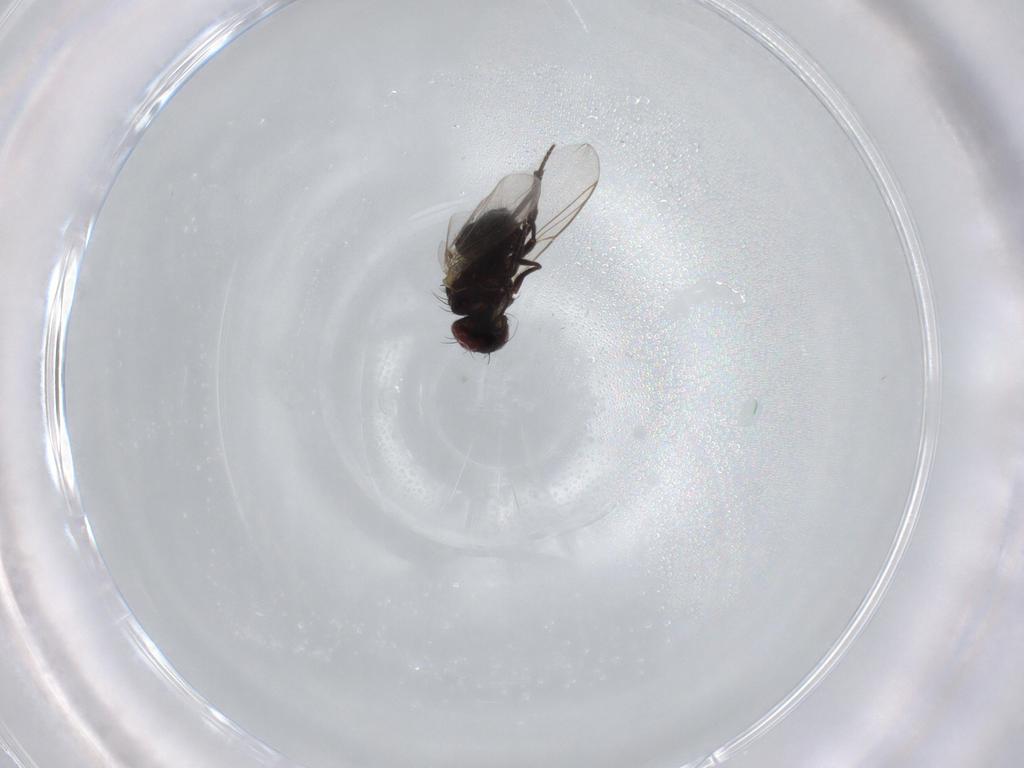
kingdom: Animalia
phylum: Arthropoda
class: Insecta
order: Diptera
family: Agromyzidae
